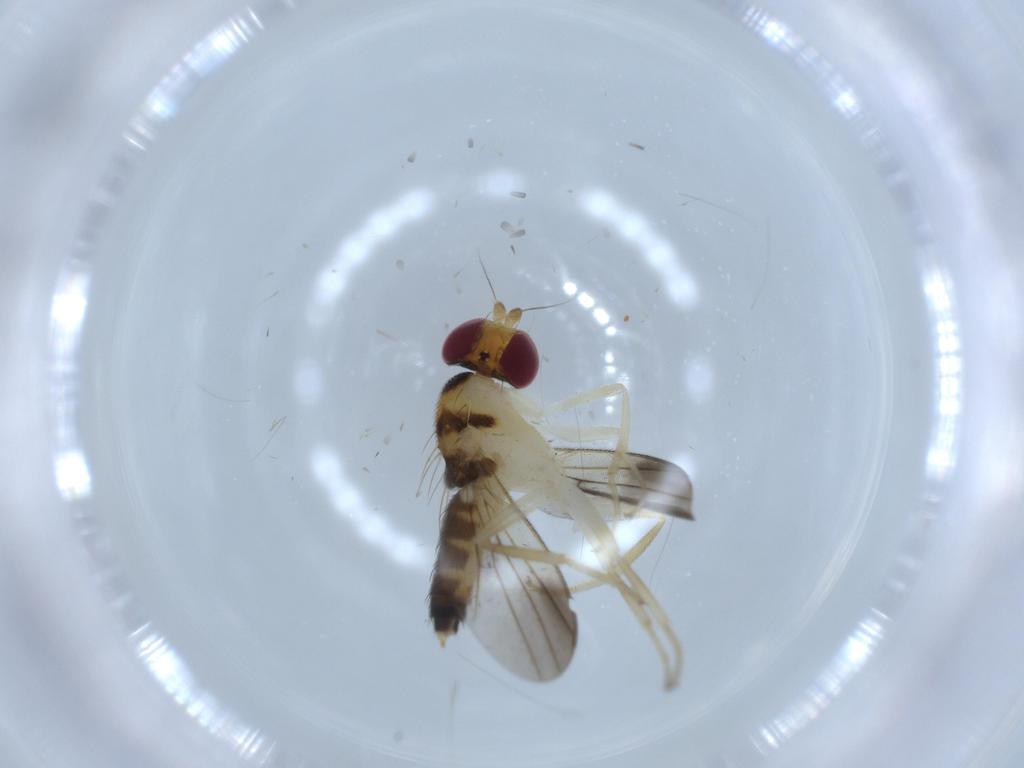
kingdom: Animalia
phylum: Arthropoda
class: Insecta
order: Diptera
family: Clusiidae
